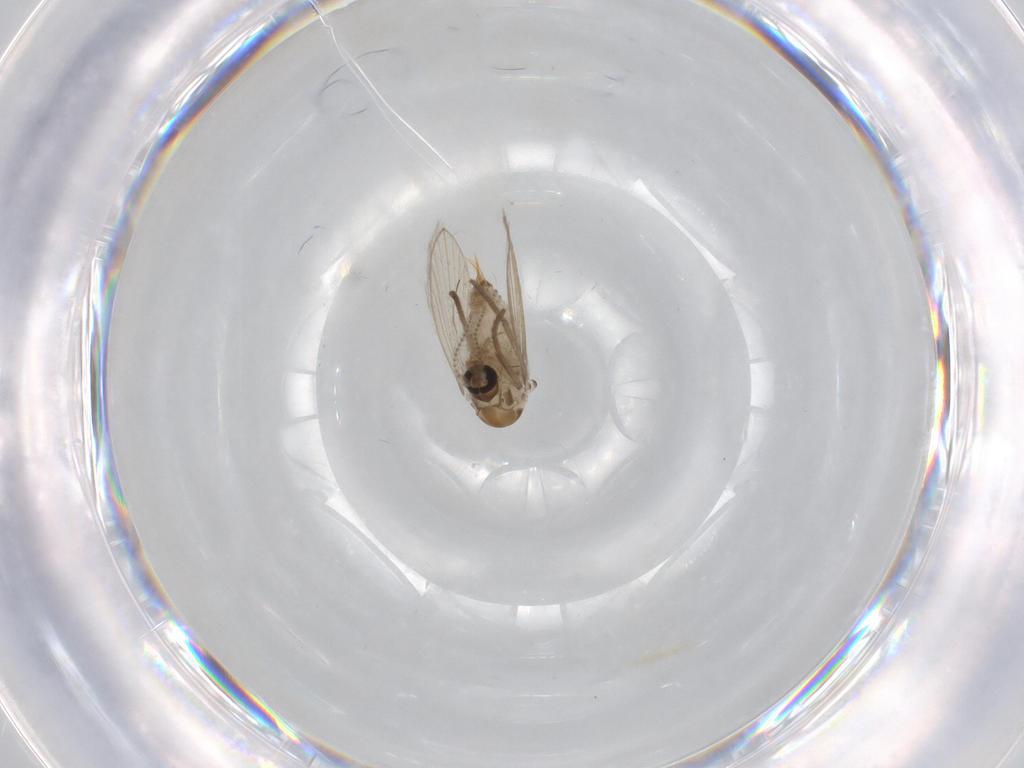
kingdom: Animalia
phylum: Arthropoda
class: Insecta
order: Diptera
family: Psychodidae
